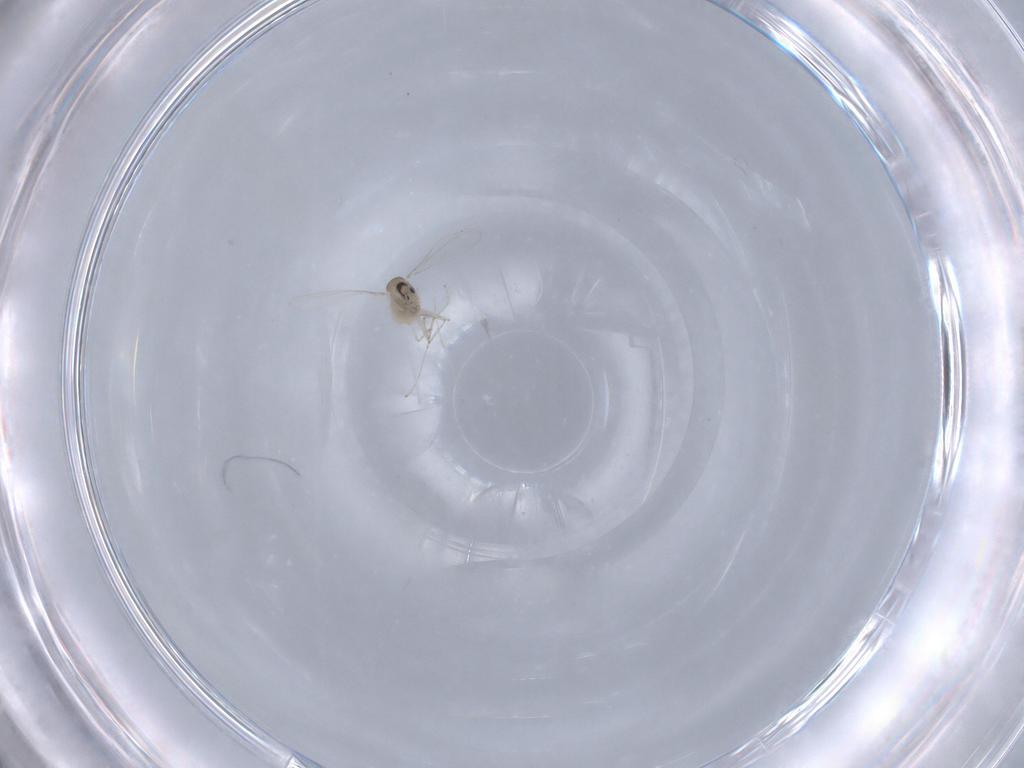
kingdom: Animalia
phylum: Arthropoda
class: Insecta
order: Diptera
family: Cecidomyiidae
